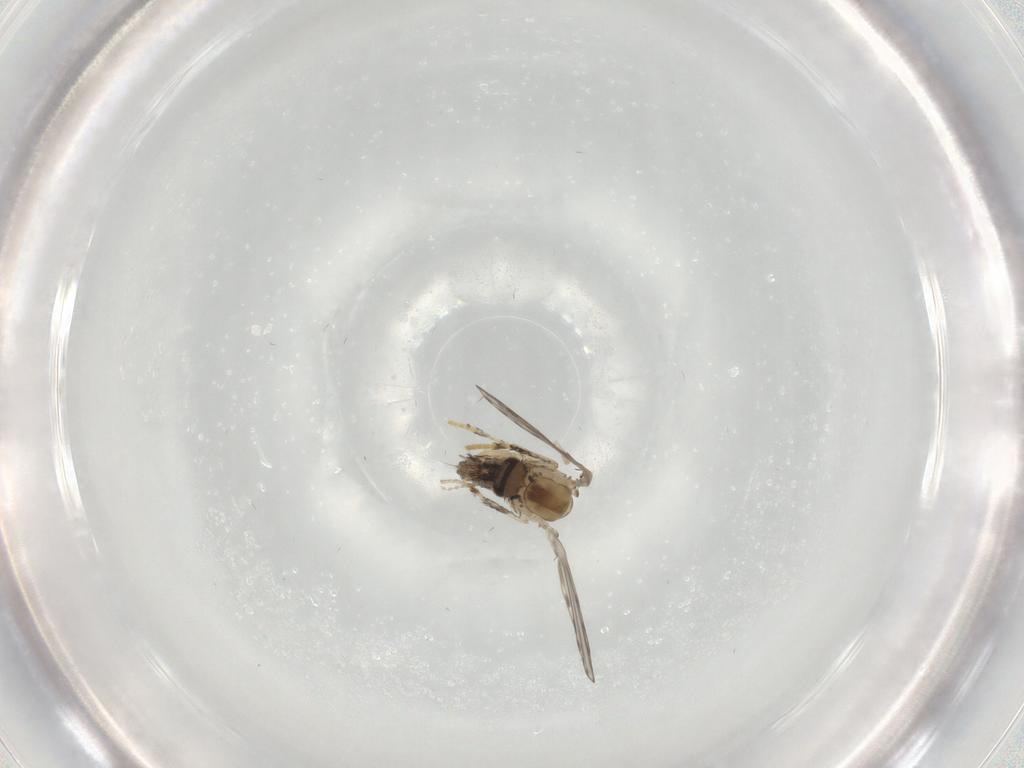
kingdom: Animalia
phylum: Arthropoda
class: Insecta
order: Diptera
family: Psychodidae
